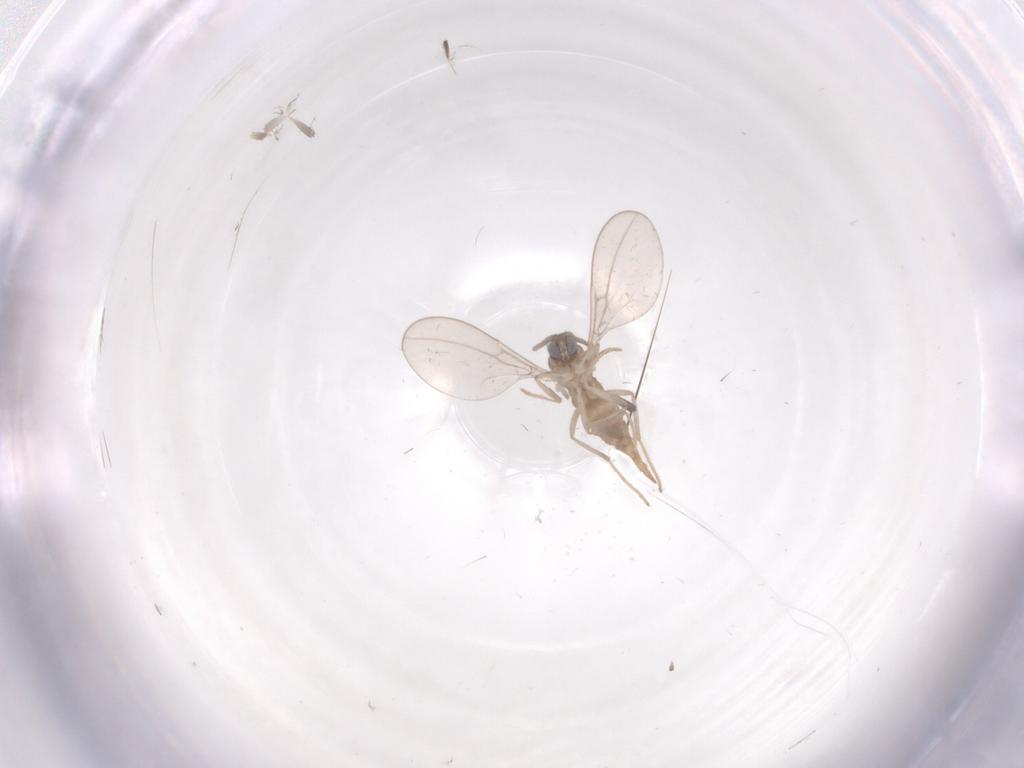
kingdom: Animalia
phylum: Arthropoda
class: Insecta
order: Diptera
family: Cecidomyiidae
